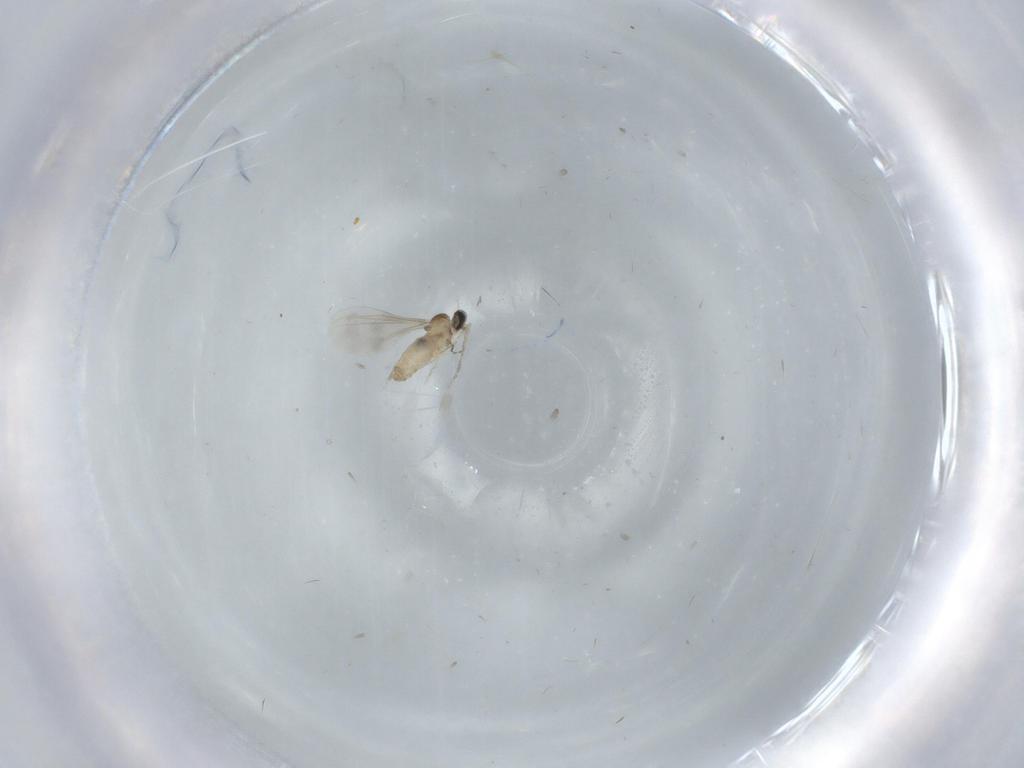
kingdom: Animalia
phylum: Arthropoda
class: Insecta
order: Diptera
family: Cecidomyiidae
